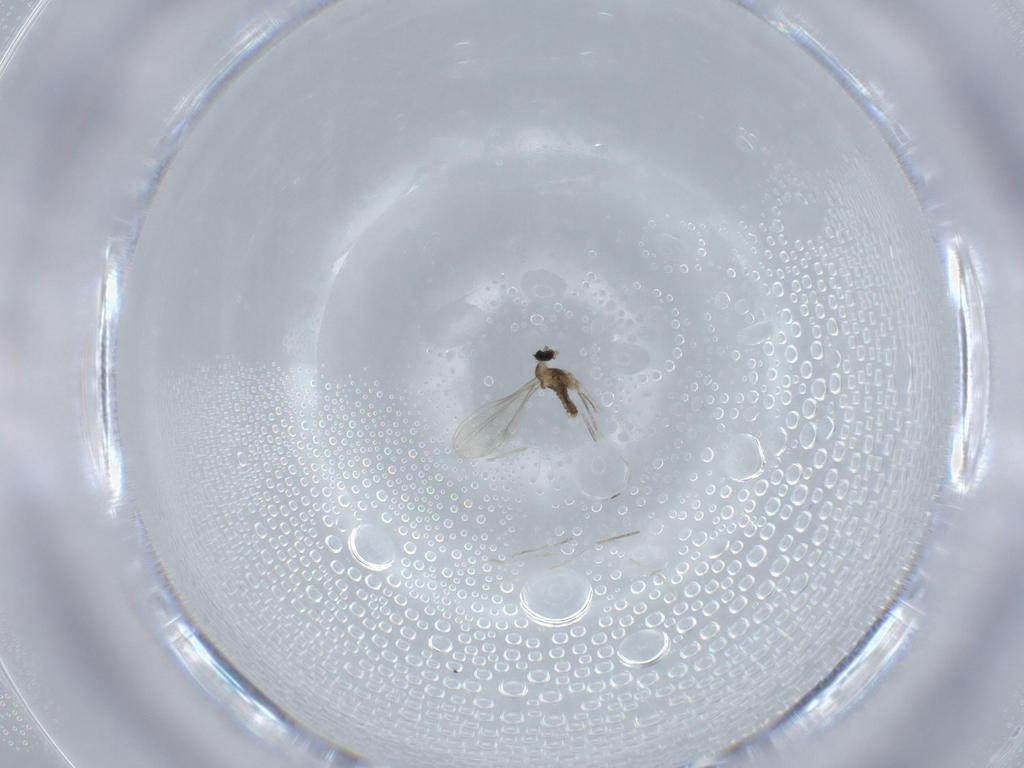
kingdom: Animalia
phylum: Arthropoda
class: Insecta
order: Diptera
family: Cecidomyiidae
